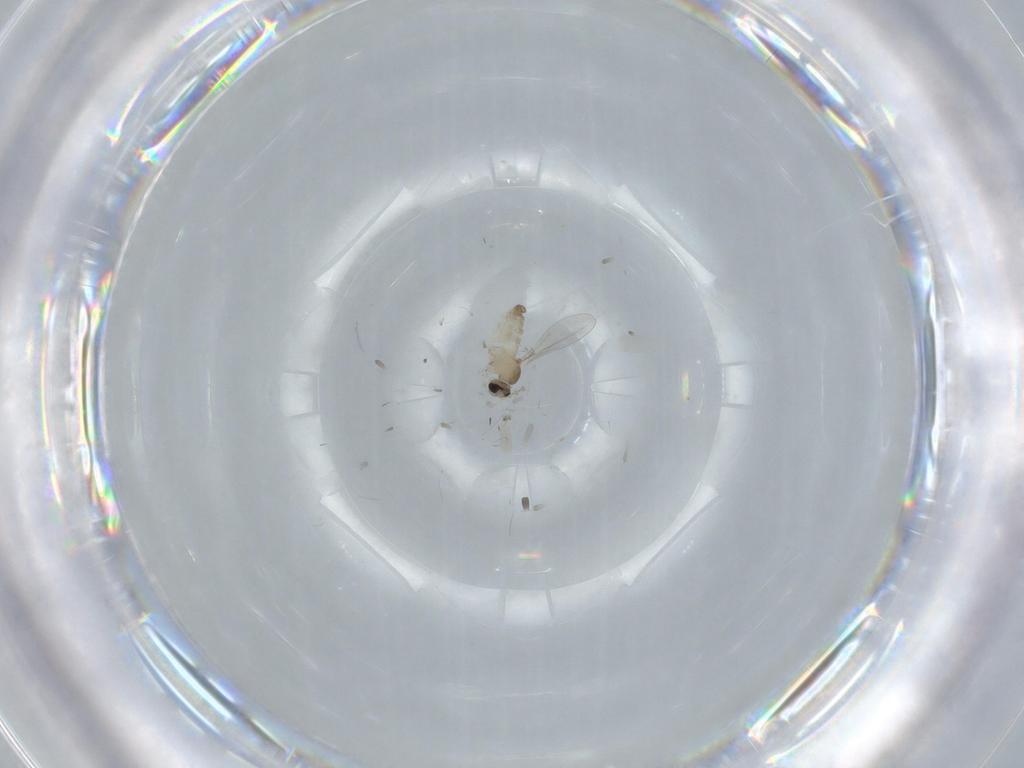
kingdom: Animalia
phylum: Arthropoda
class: Insecta
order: Diptera
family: Cecidomyiidae
